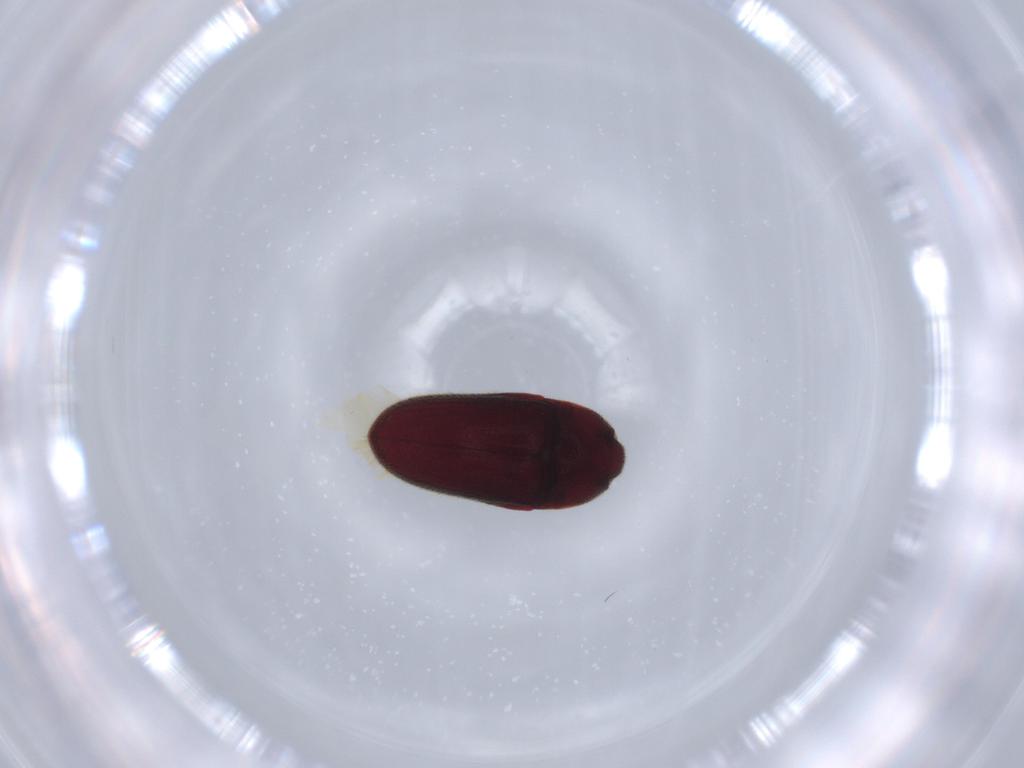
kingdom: Animalia
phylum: Arthropoda
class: Insecta
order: Coleoptera
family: Throscidae
